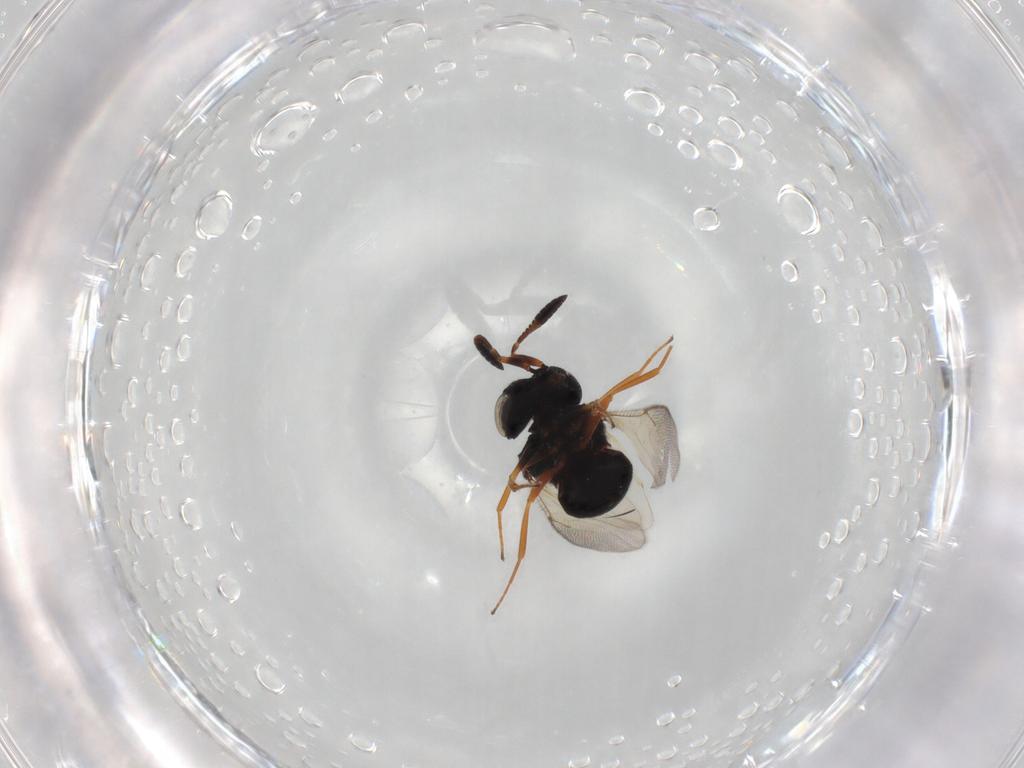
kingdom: Animalia
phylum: Arthropoda
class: Insecta
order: Hymenoptera
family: Scelionidae
